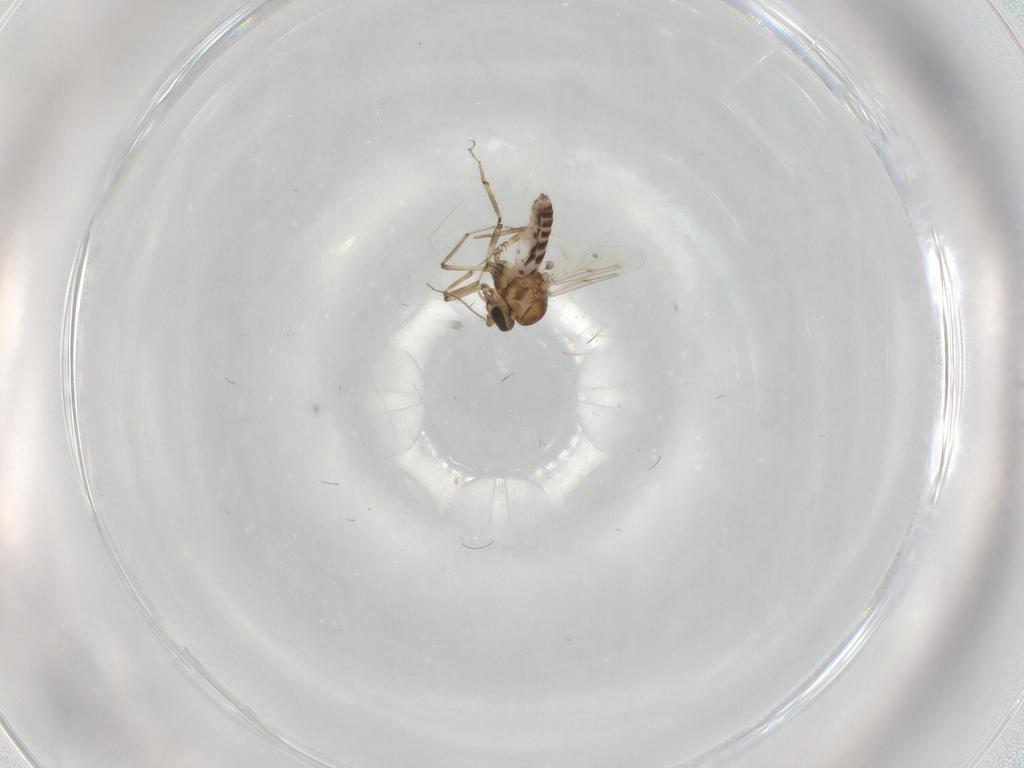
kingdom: Animalia
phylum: Arthropoda
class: Insecta
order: Diptera
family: Ceratopogonidae
